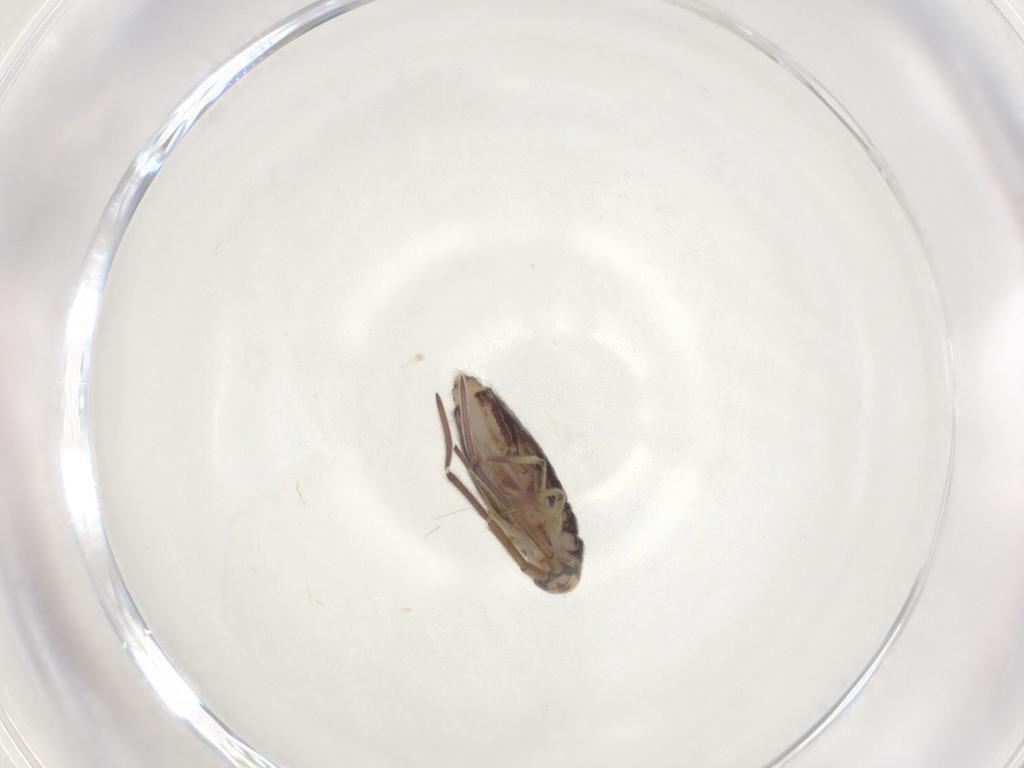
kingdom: Animalia
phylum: Arthropoda
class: Collembola
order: Entomobryomorpha
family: Entomobryidae
